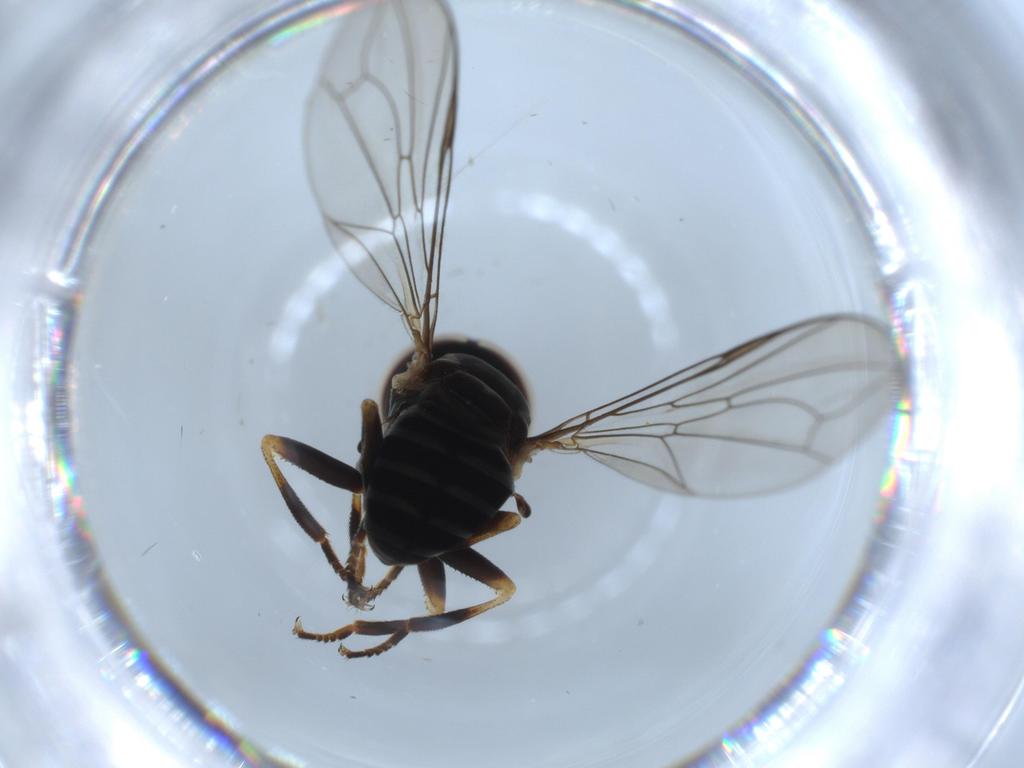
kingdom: Animalia
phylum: Arthropoda
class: Insecta
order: Diptera
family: Pipunculidae
